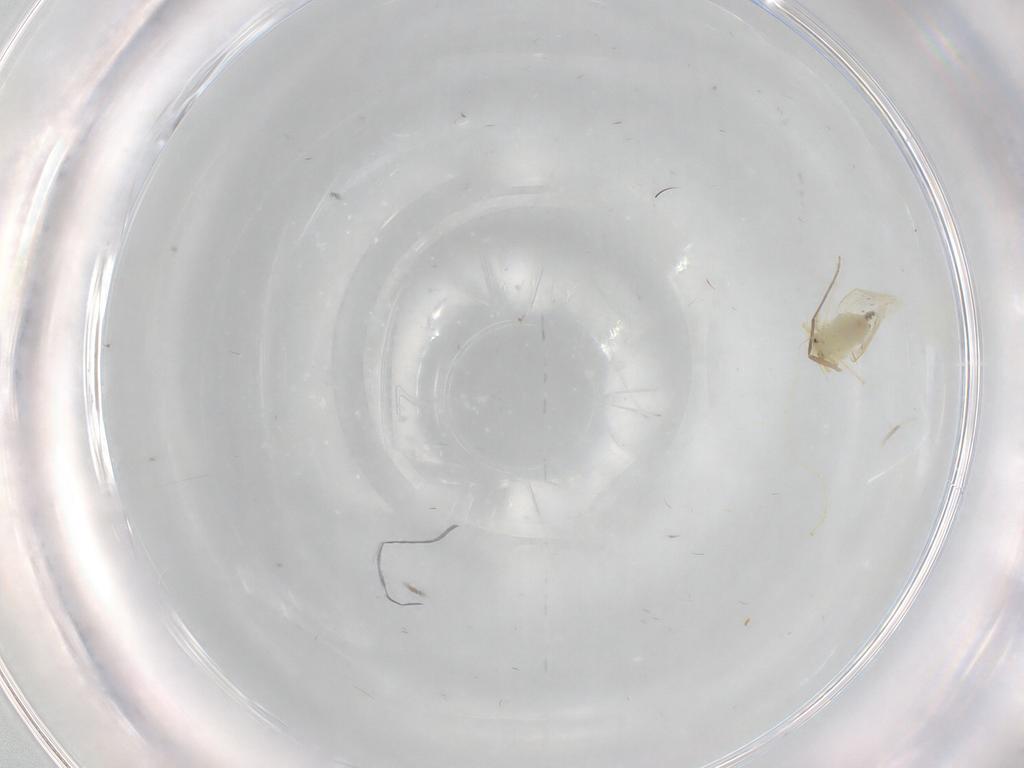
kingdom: Animalia
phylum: Arthropoda
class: Insecta
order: Hemiptera
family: Aleyrodidae
